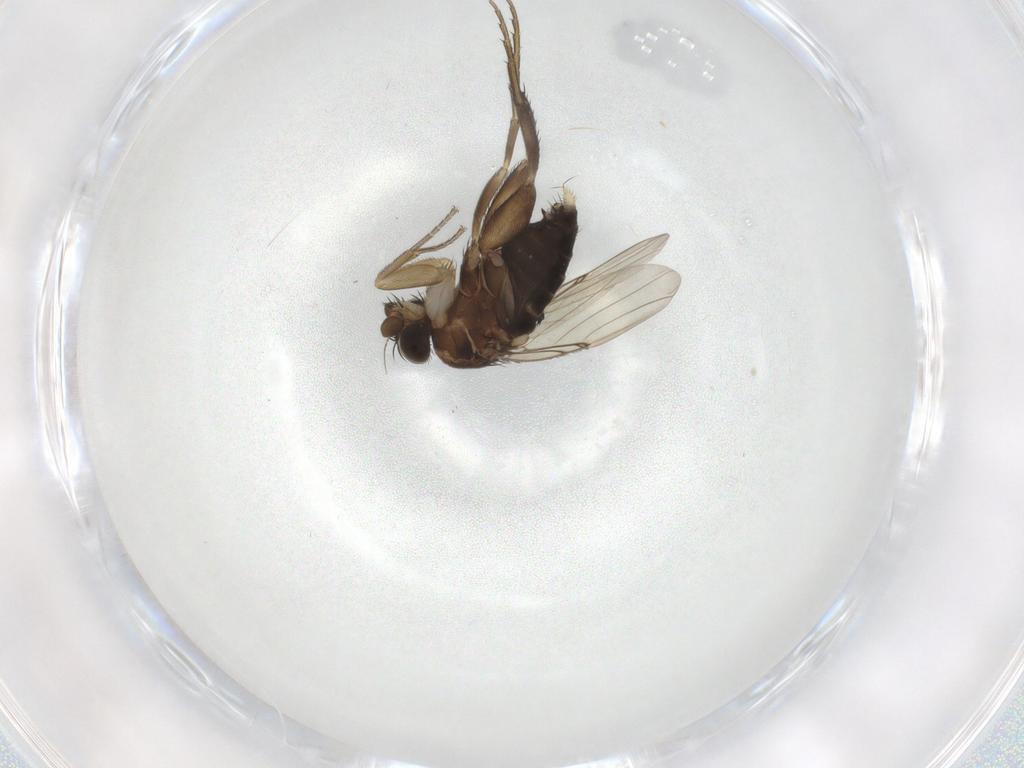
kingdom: Animalia
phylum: Arthropoda
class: Insecta
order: Diptera
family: Phoridae
